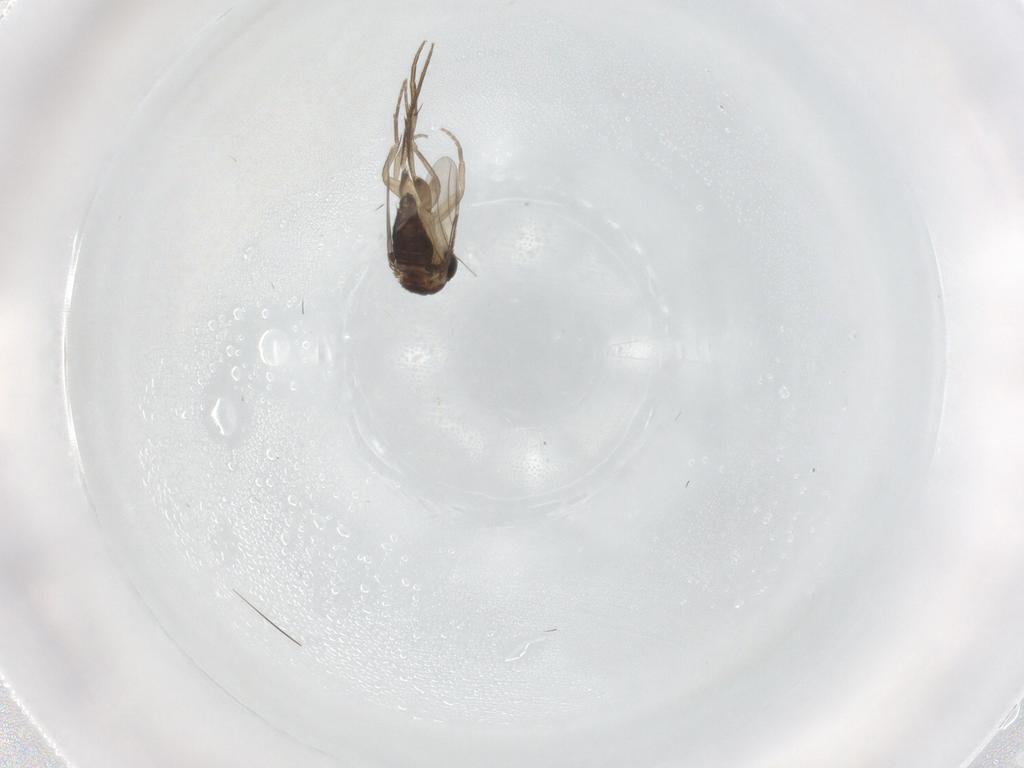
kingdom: Animalia
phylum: Arthropoda
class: Insecta
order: Diptera
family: Phoridae
